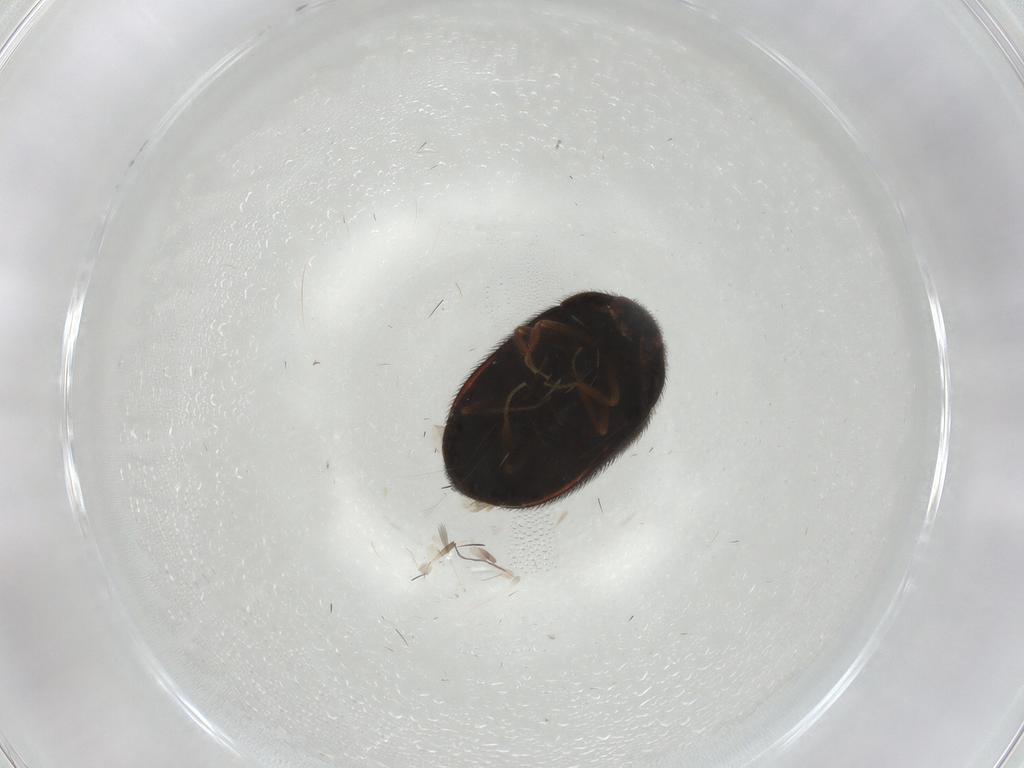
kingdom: Animalia
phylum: Arthropoda
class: Insecta
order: Coleoptera
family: Dermestidae
